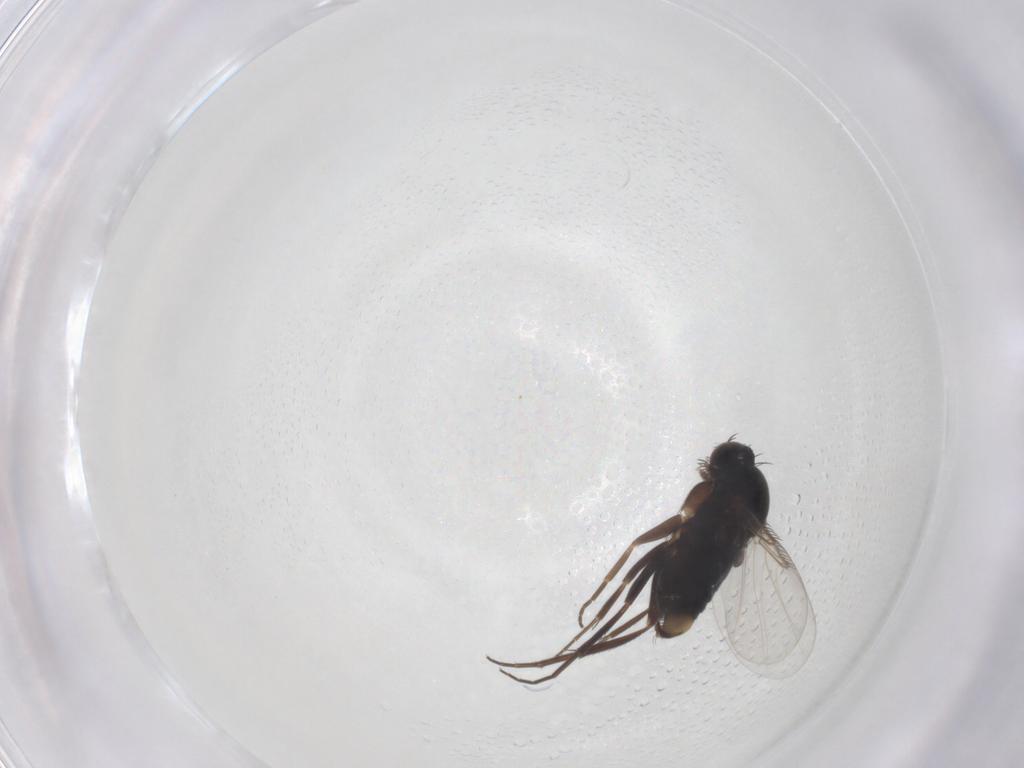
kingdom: Animalia
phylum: Arthropoda
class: Insecta
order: Diptera
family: Phoridae
